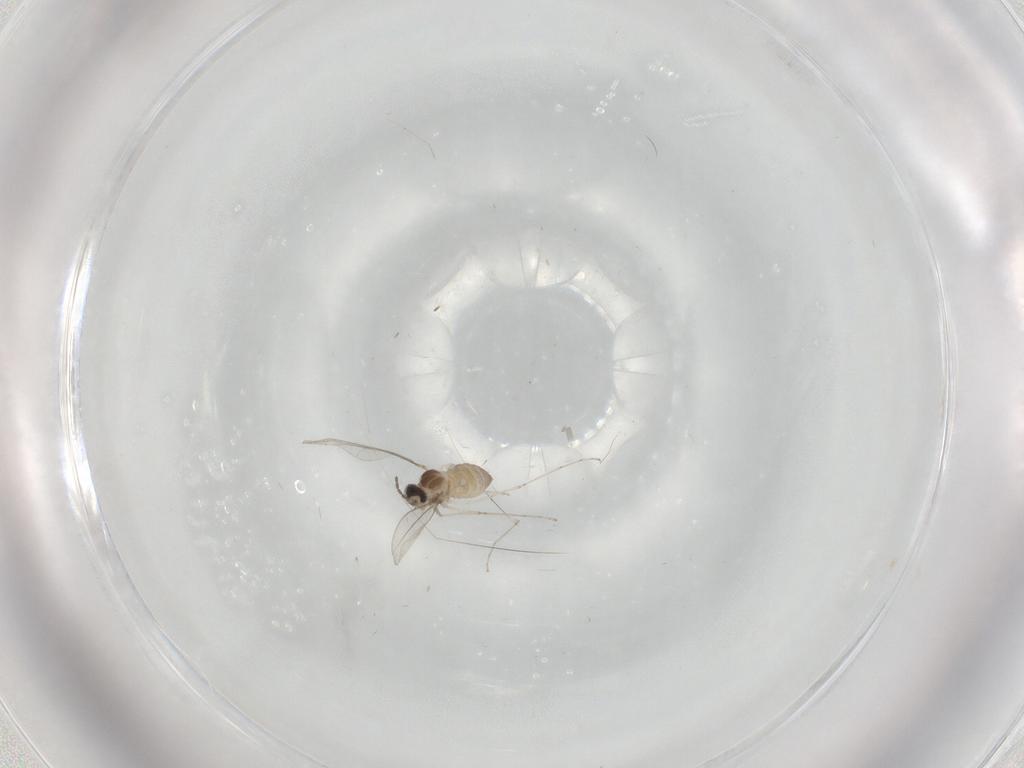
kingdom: Animalia
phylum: Arthropoda
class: Insecta
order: Diptera
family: Cecidomyiidae
